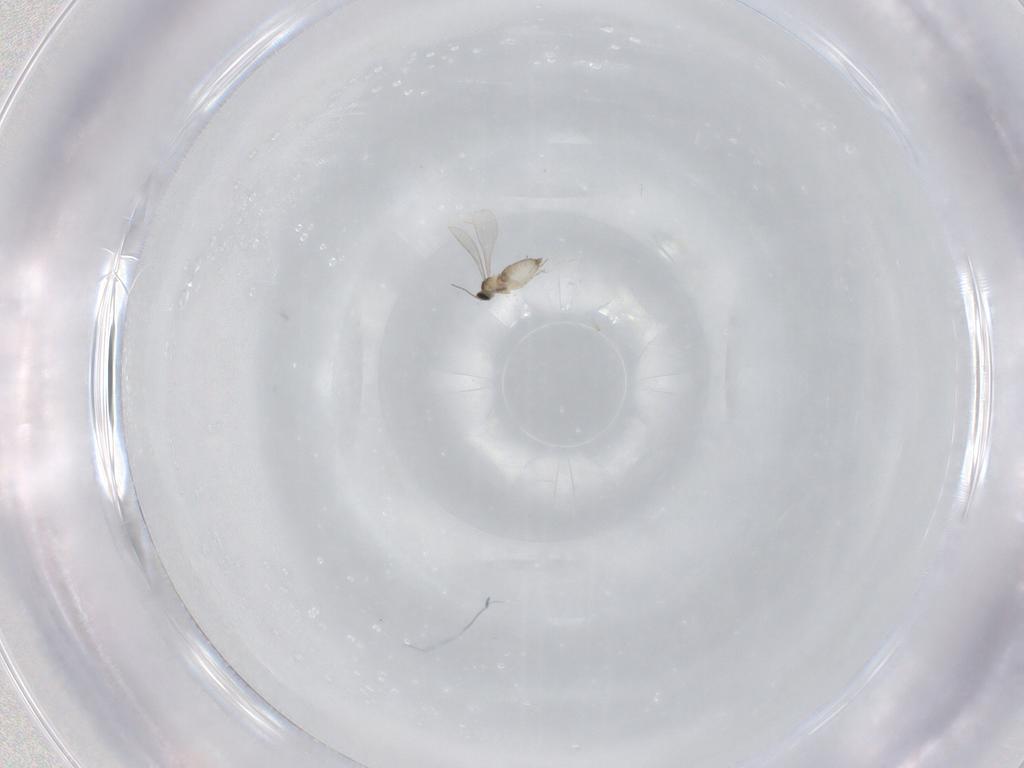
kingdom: Animalia
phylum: Arthropoda
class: Insecta
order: Diptera
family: Cecidomyiidae
